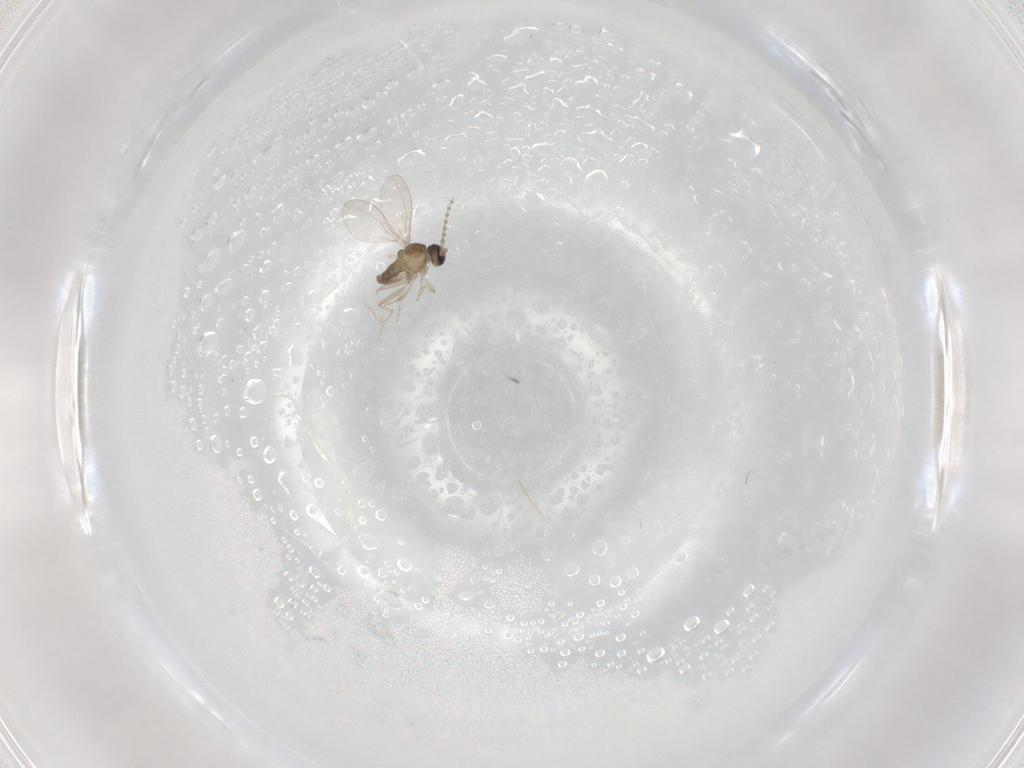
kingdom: Animalia
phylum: Arthropoda
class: Insecta
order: Diptera
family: Cecidomyiidae
